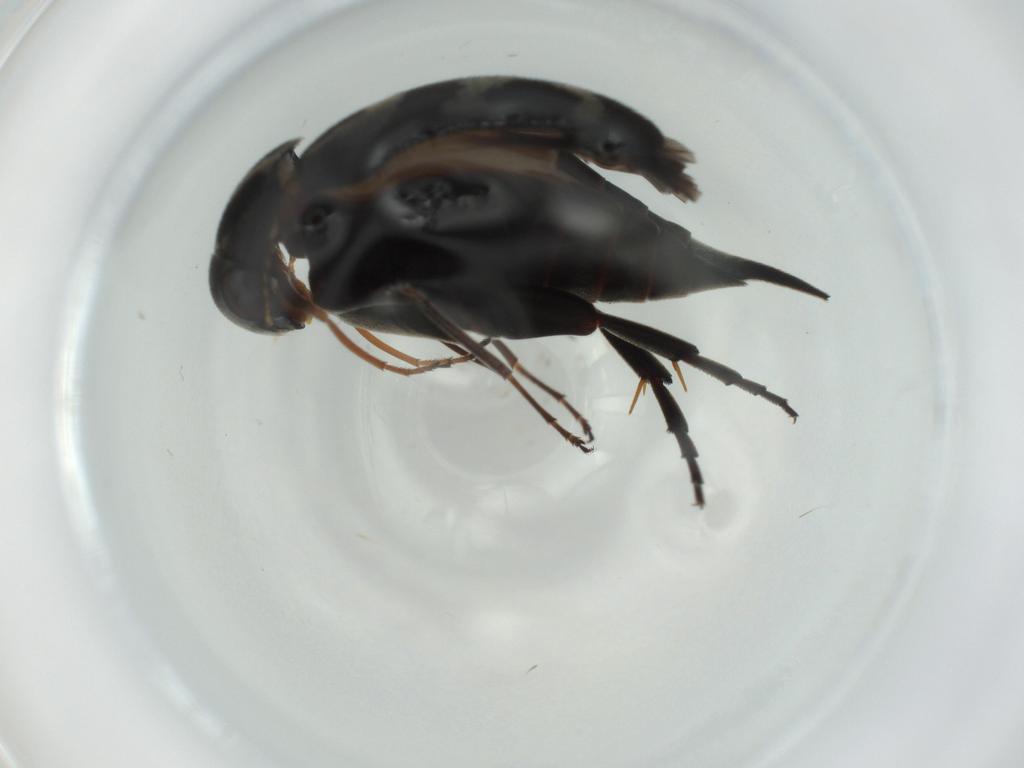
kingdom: Animalia
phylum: Arthropoda
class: Insecta
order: Coleoptera
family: Mordellidae
